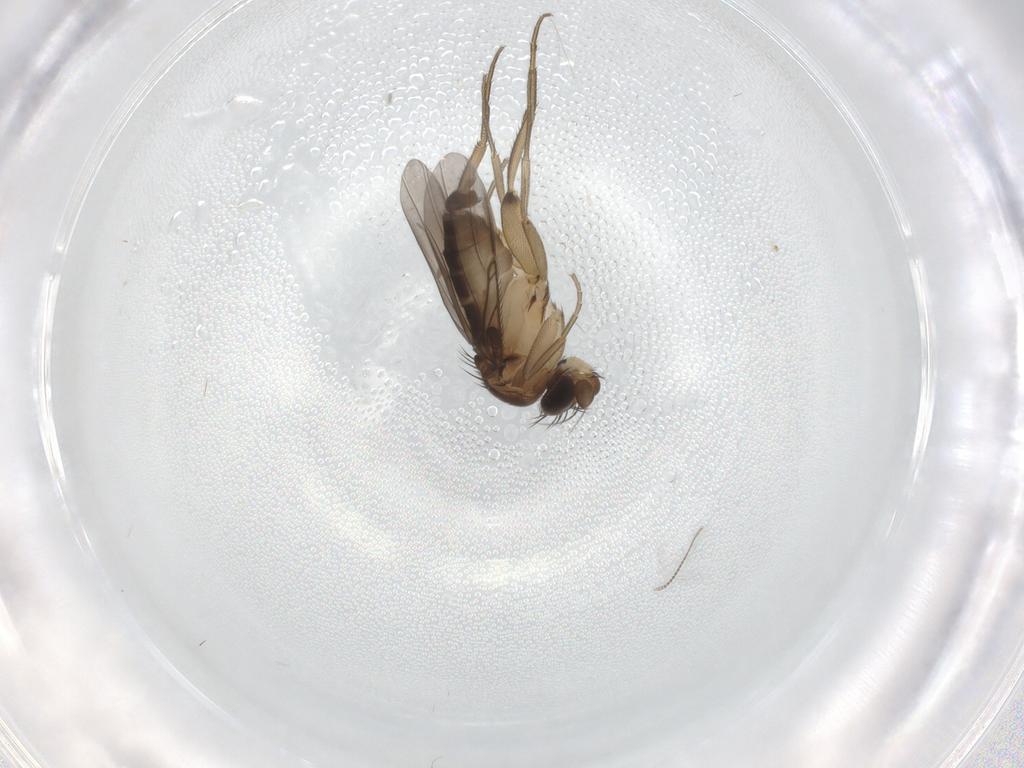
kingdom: Animalia
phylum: Arthropoda
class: Insecta
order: Diptera
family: Phoridae
